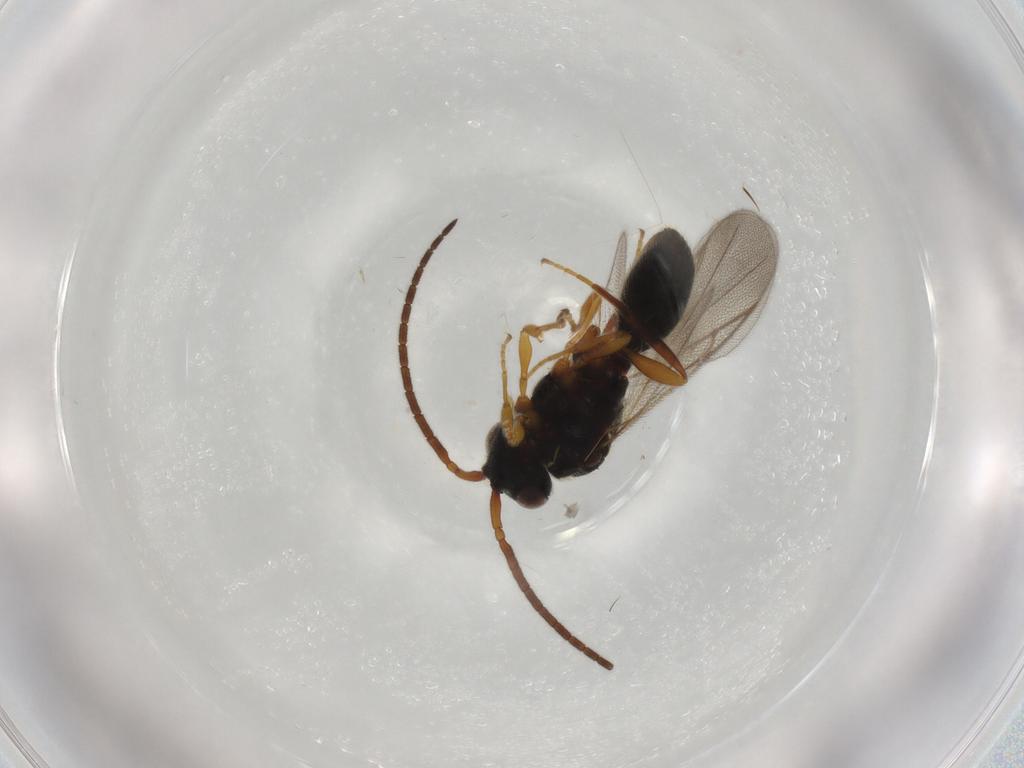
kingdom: Animalia
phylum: Arthropoda
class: Insecta
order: Hymenoptera
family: Diapriidae
